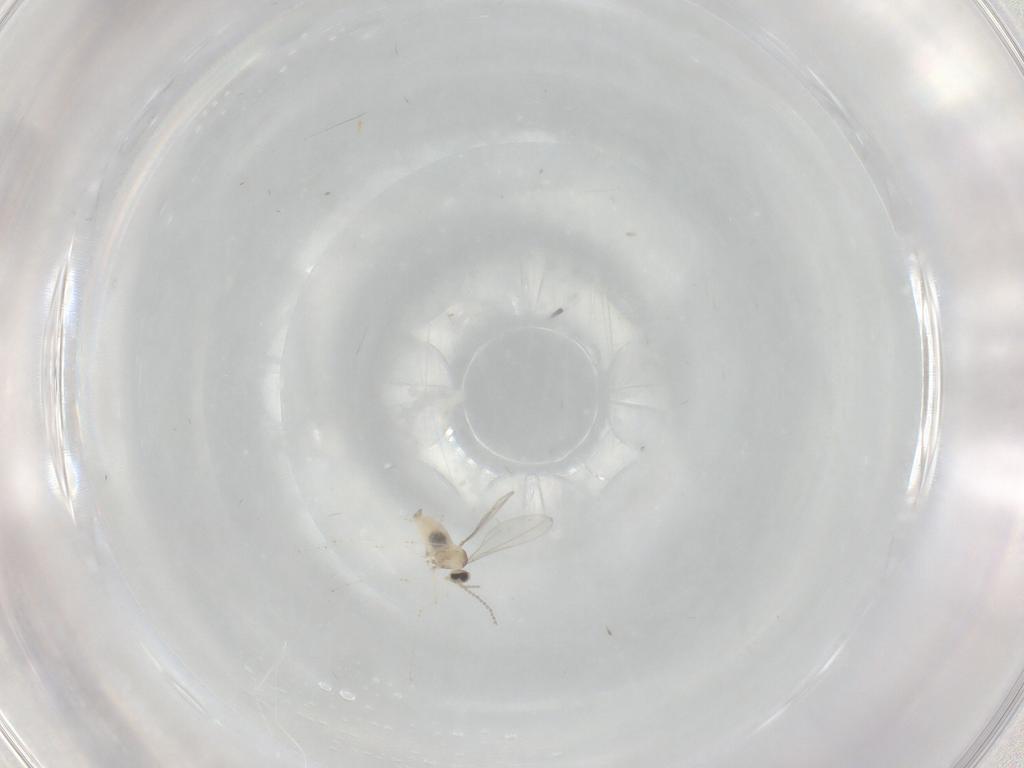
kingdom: Animalia
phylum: Arthropoda
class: Insecta
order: Diptera
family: Cecidomyiidae
